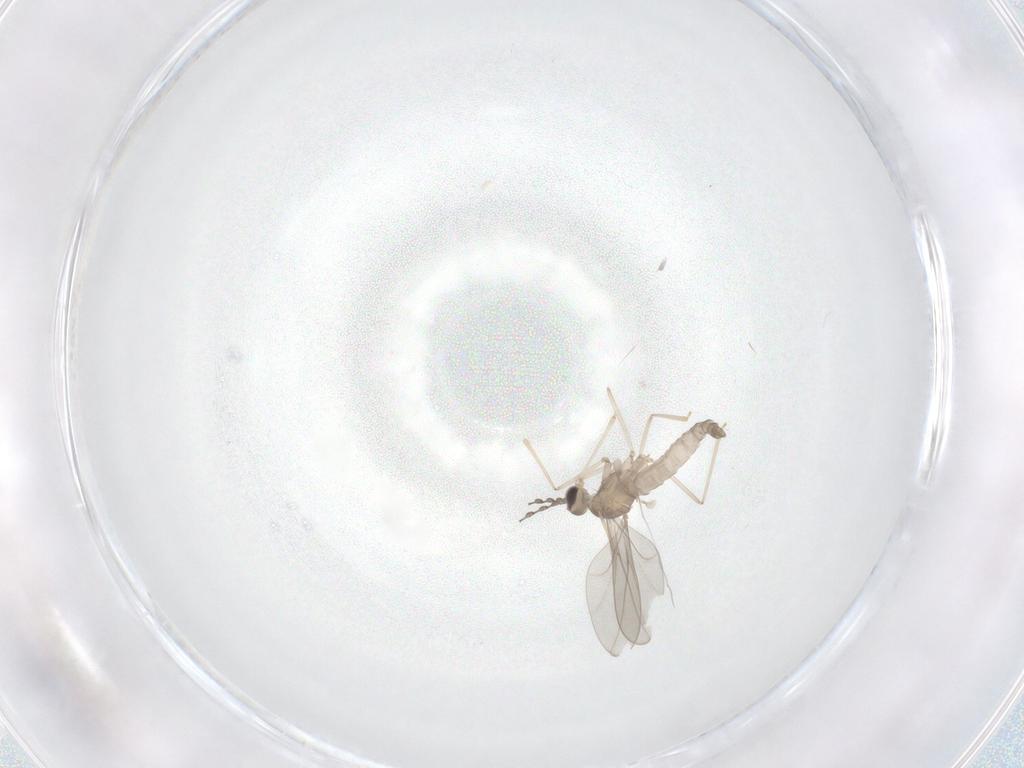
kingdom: Animalia
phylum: Arthropoda
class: Insecta
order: Diptera
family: Cecidomyiidae
